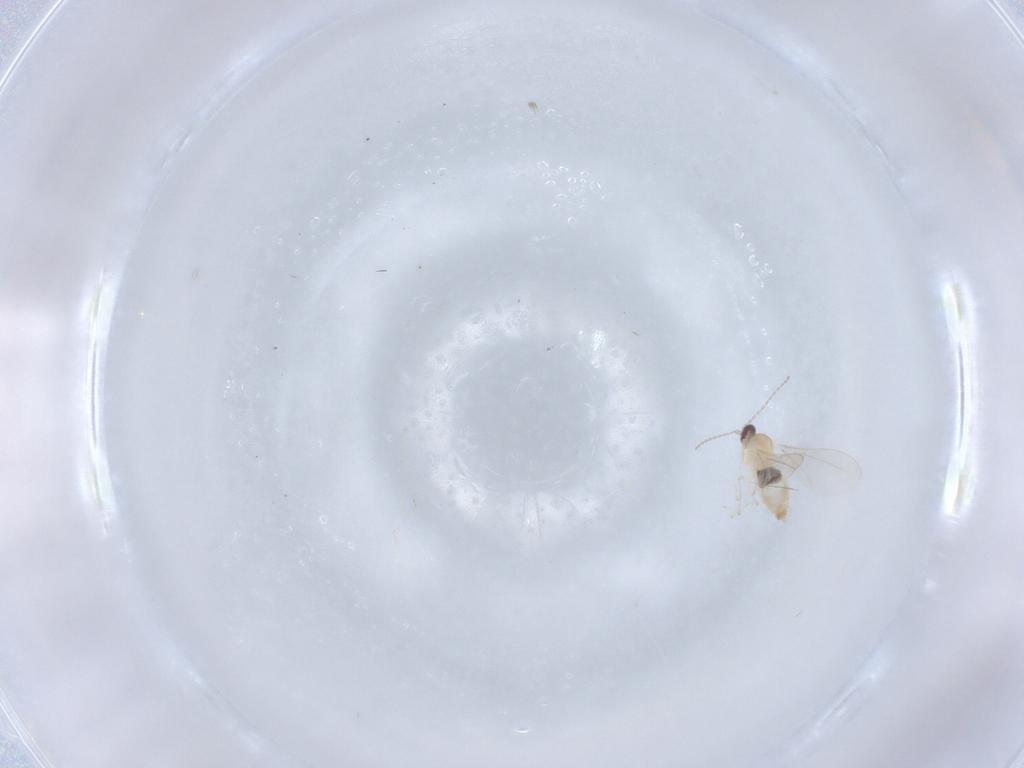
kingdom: Animalia
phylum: Arthropoda
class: Insecta
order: Diptera
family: Cecidomyiidae
